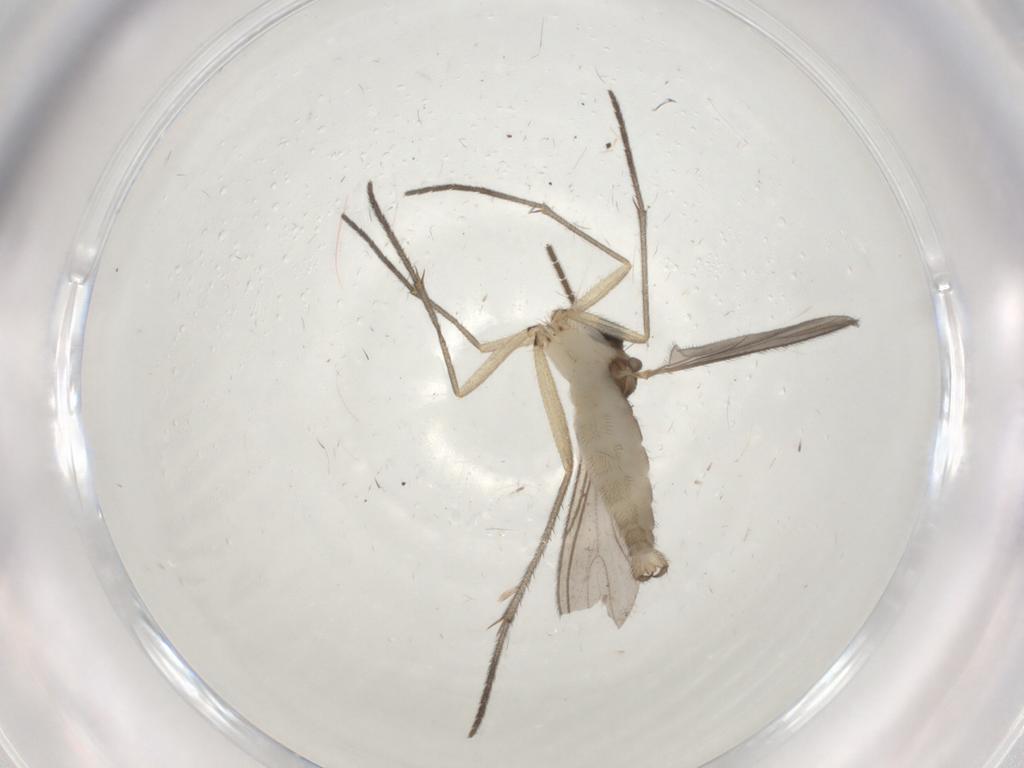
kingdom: Animalia
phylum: Arthropoda
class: Insecta
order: Diptera
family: Sciaridae
